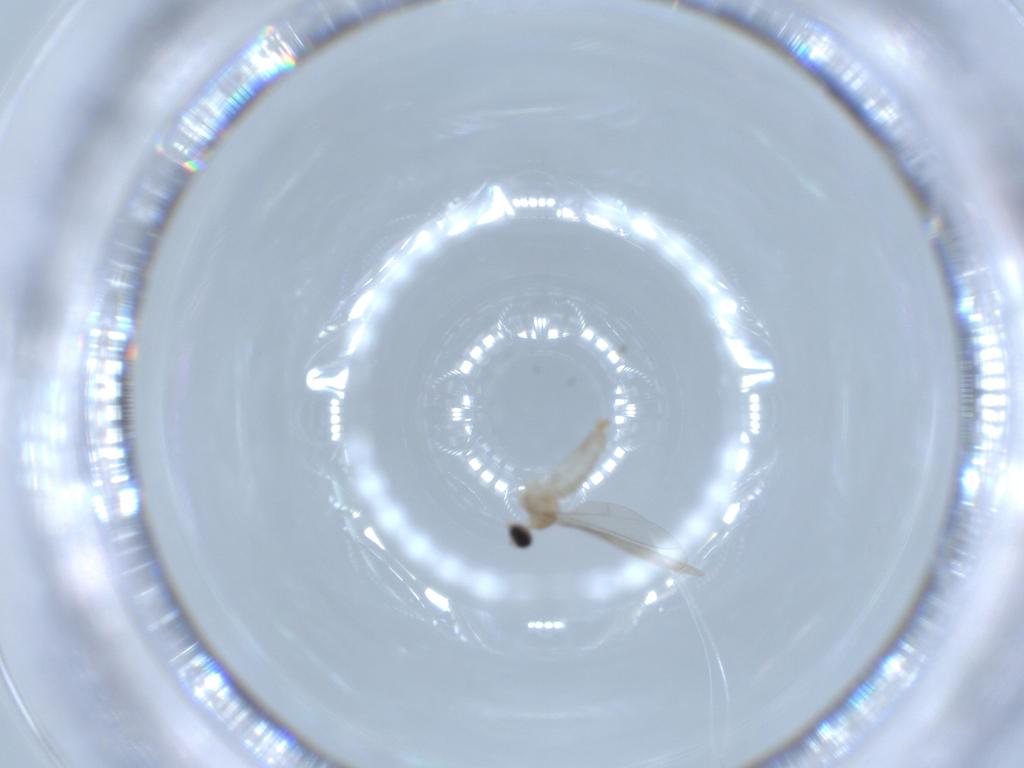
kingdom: Animalia
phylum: Arthropoda
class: Insecta
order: Diptera
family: Cecidomyiidae
